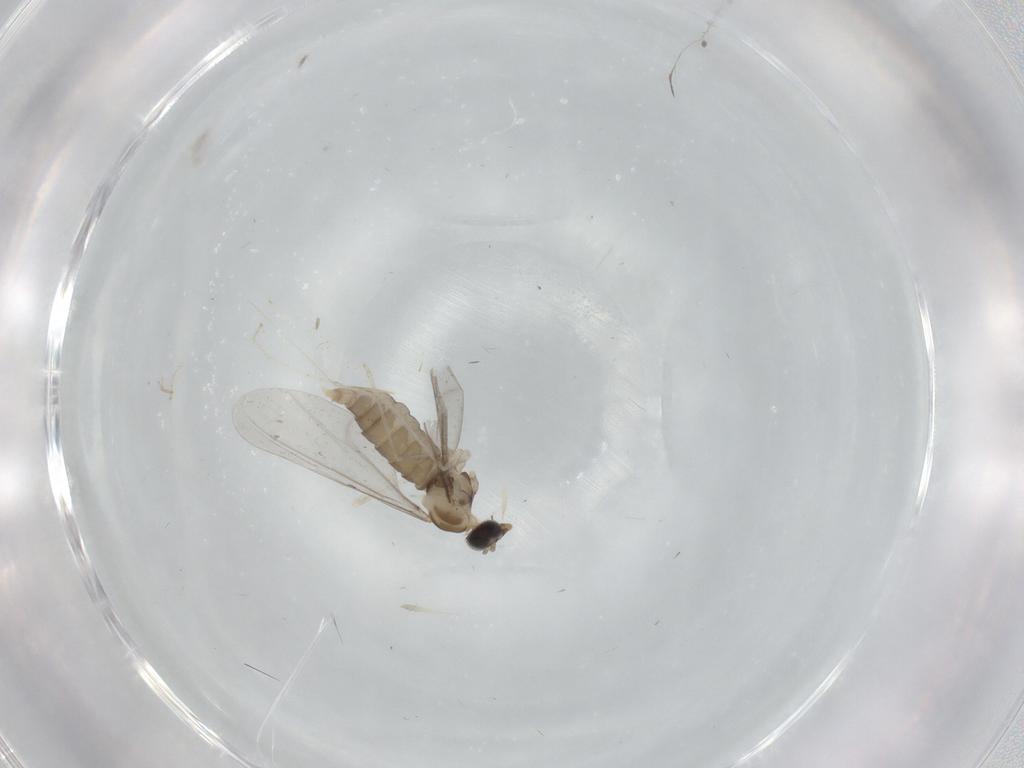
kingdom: Animalia
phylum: Arthropoda
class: Insecta
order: Diptera
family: Cecidomyiidae
